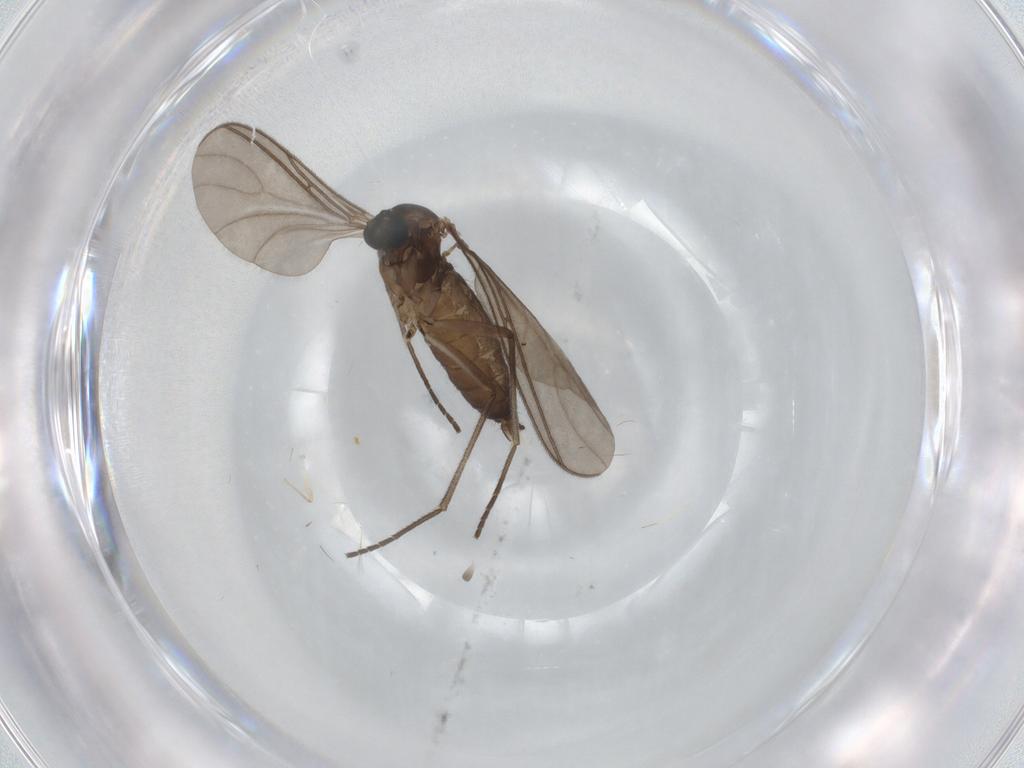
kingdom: Animalia
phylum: Arthropoda
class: Insecta
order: Diptera
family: Sciaridae
